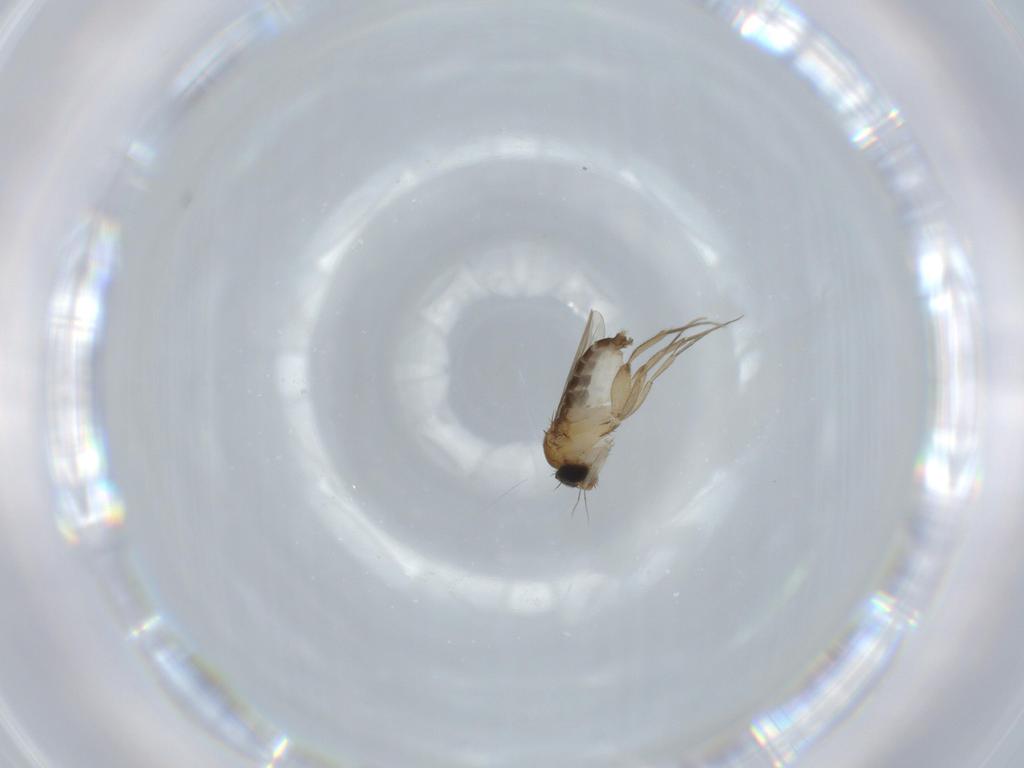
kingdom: Animalia
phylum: Arthropoda
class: Insecta
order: Diptera
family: Phoridae
